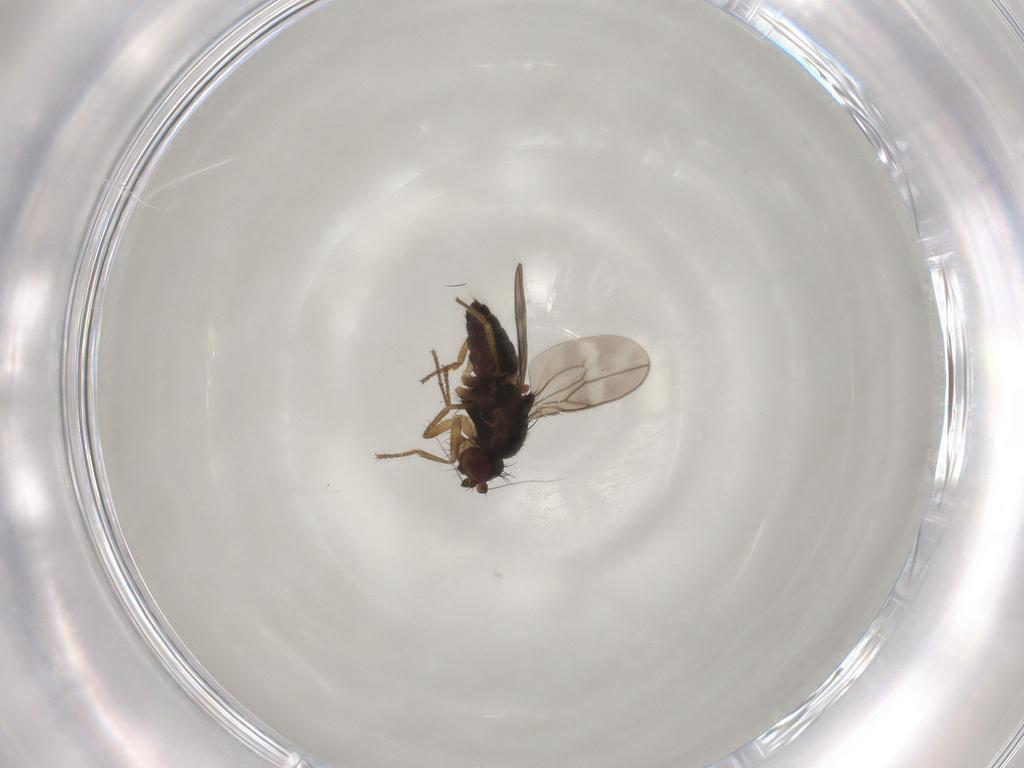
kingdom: Animalia
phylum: Arthropoda
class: Insecta
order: Diptera
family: Sphaeroceridae
